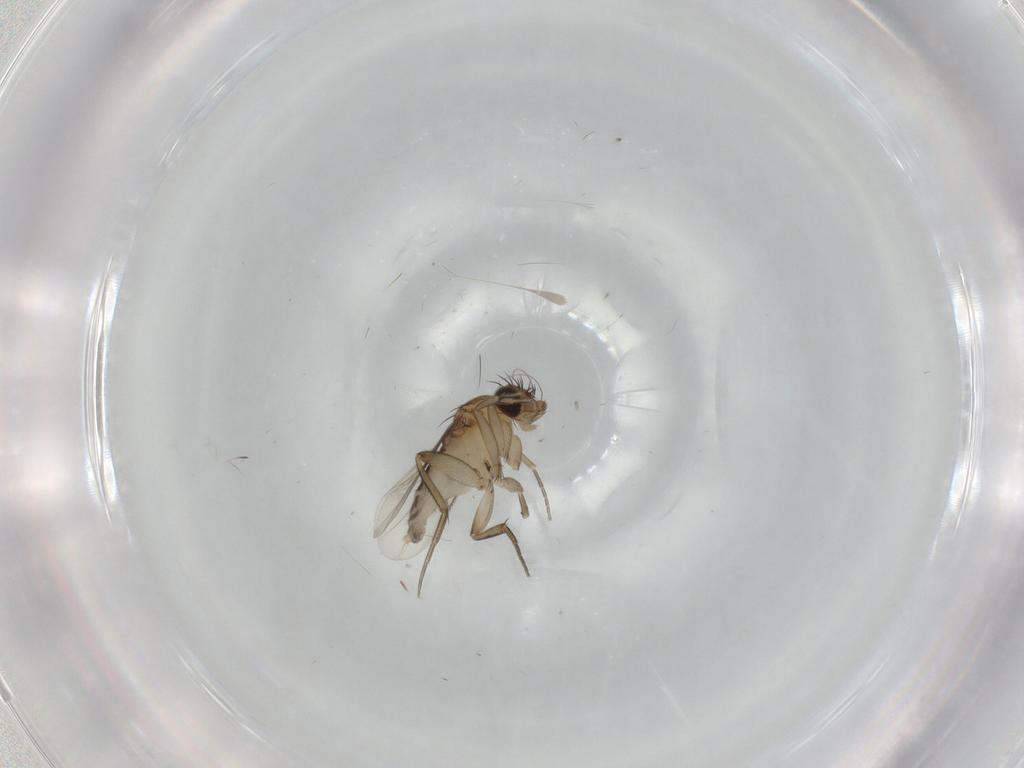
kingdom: Animalia
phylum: Arthropoda
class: Insecta
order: Diptera
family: Phoridae
